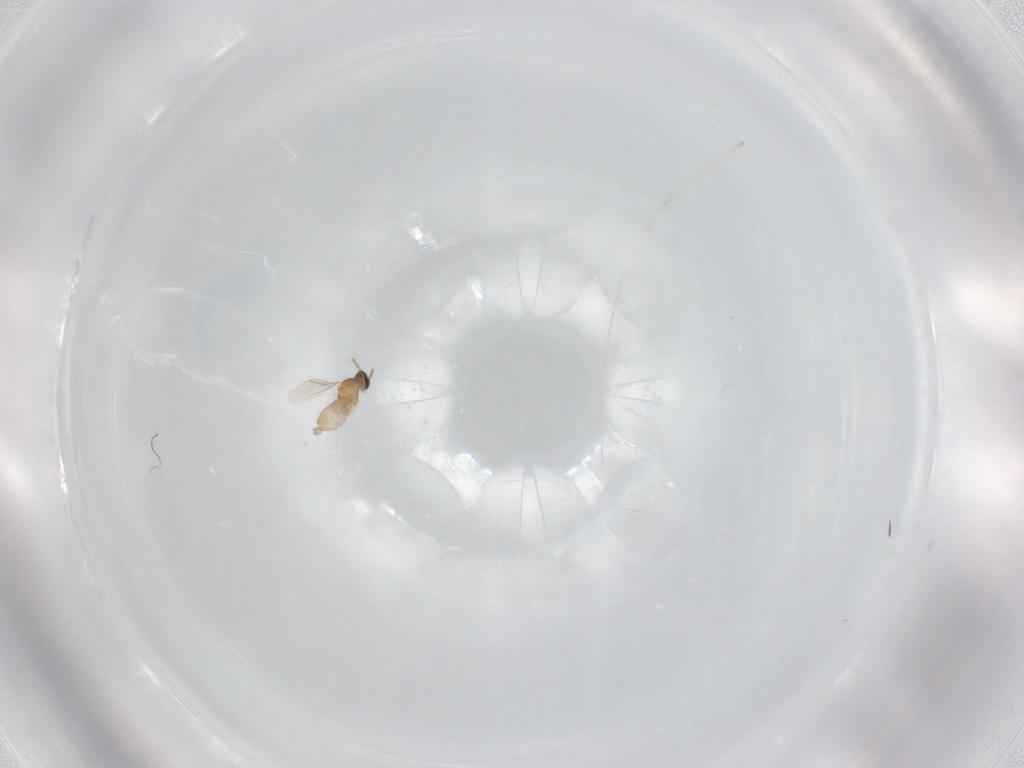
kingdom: Animalia
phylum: Arthropoda
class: Insecta
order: Diptera
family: Cecidomyiidae
